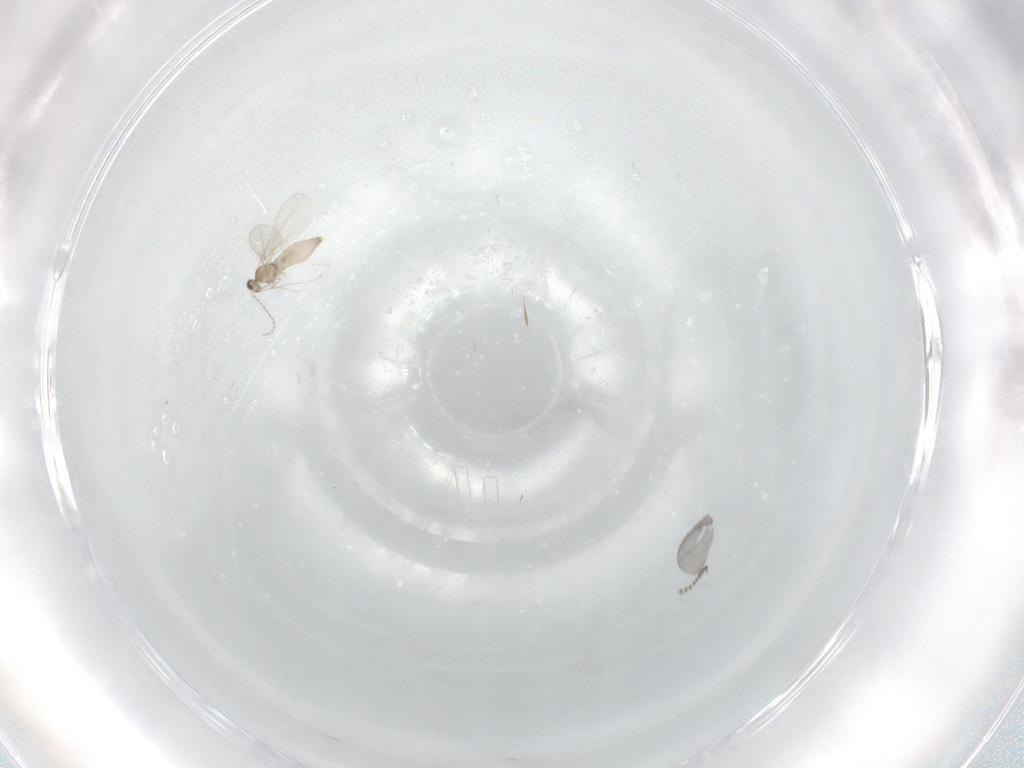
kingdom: Animalia
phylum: Arthropoda
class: Insecta
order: Diptera
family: Cecidomyiidae
